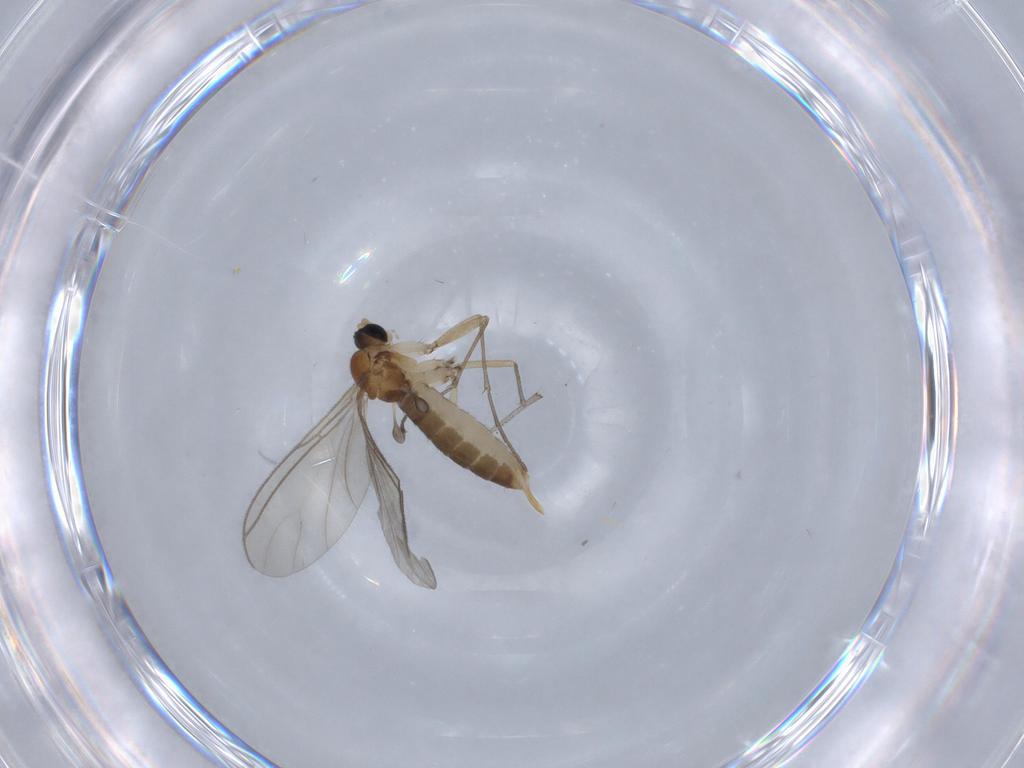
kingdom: Animalia
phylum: Arthropoda
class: Insecta
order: Diptera
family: Sciaridae
